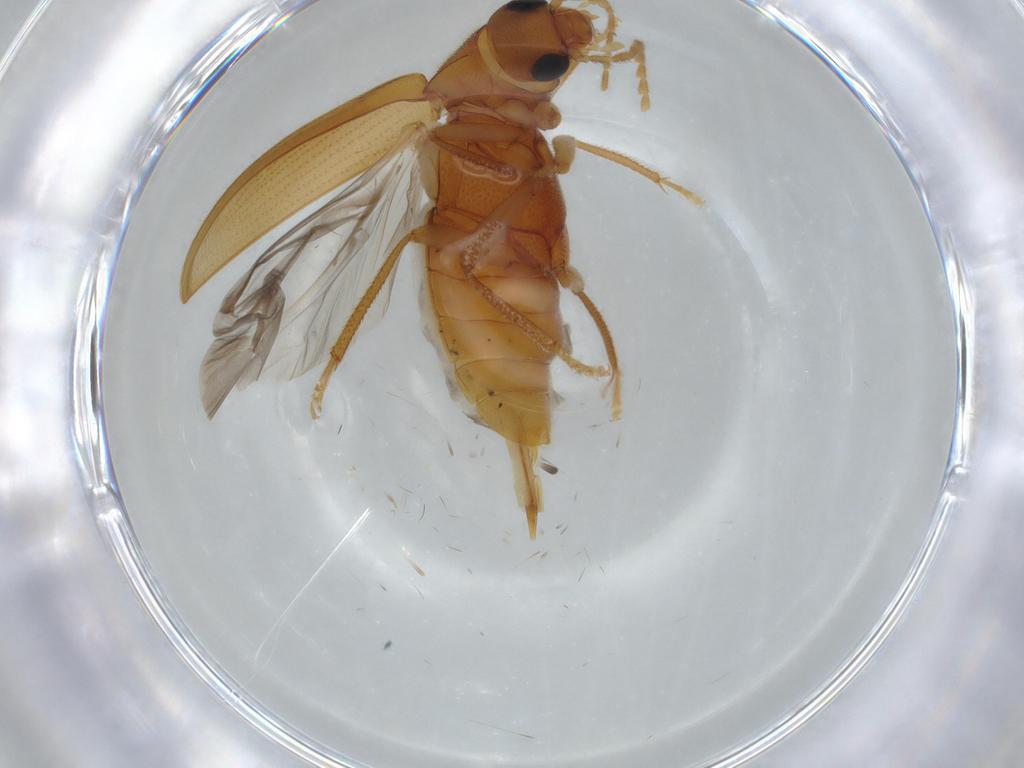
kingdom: Animalia
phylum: Arthropoda
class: Insecta
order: Coleoptera
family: Ptilodactylidae
